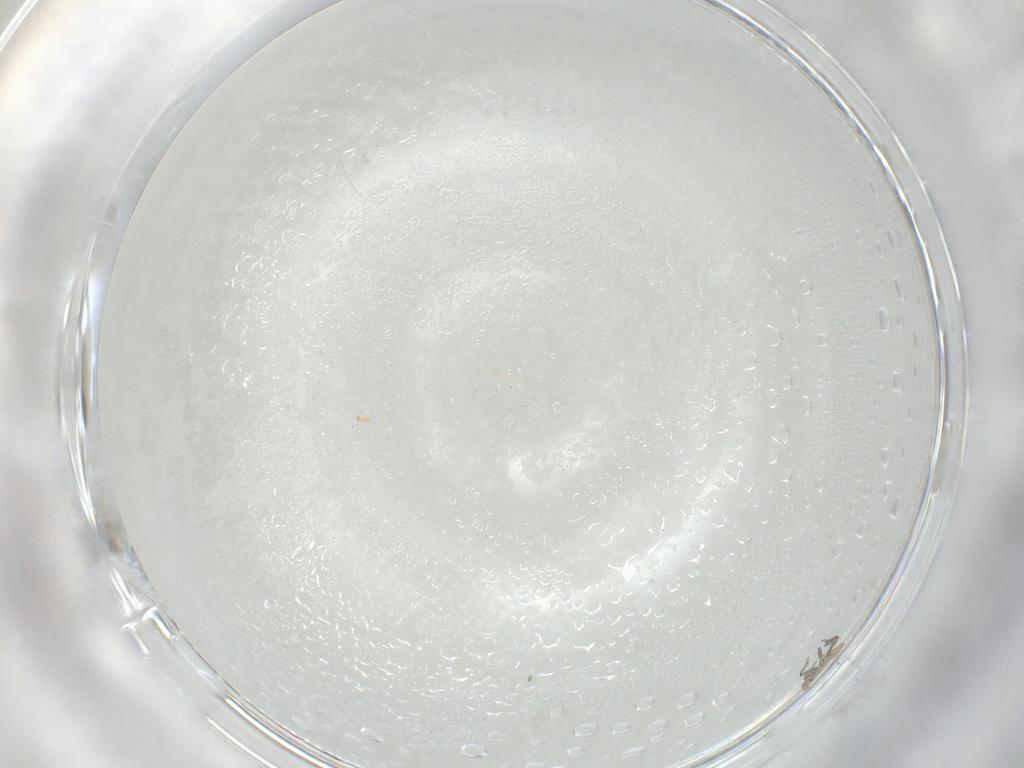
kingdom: Animalia
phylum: Arthropoda
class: Insecta
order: Hemiptera
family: Aphididae
